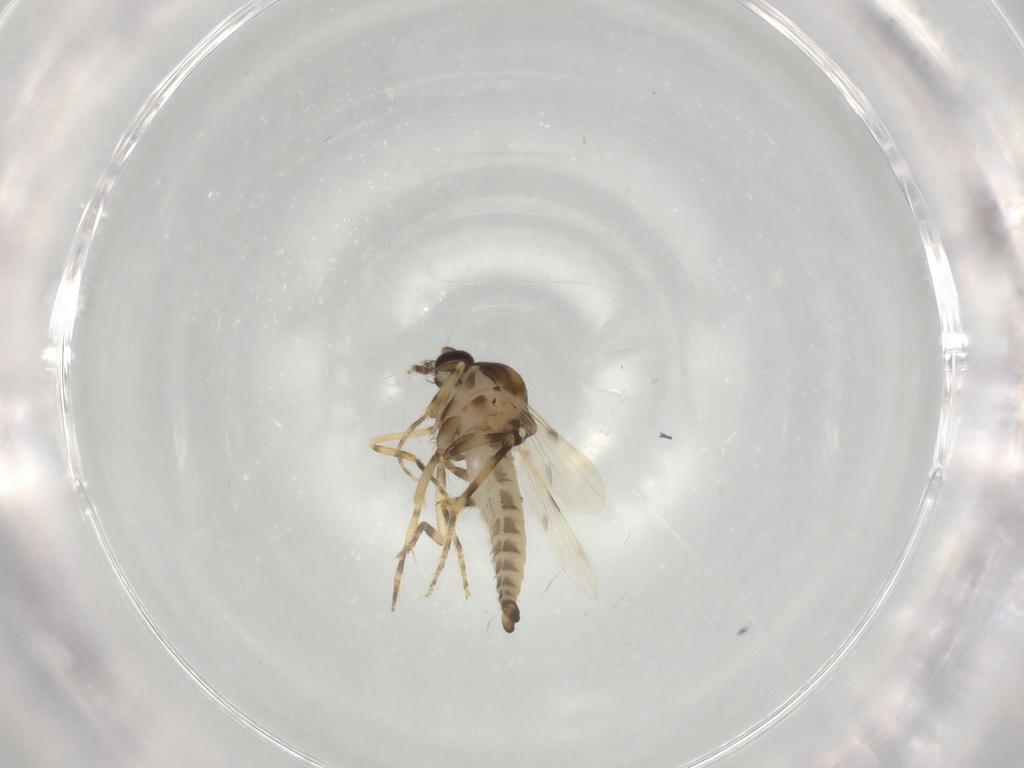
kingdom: Animalia
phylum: Arthropoda
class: Insecta
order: Diptera
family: Ceratopogonidae
